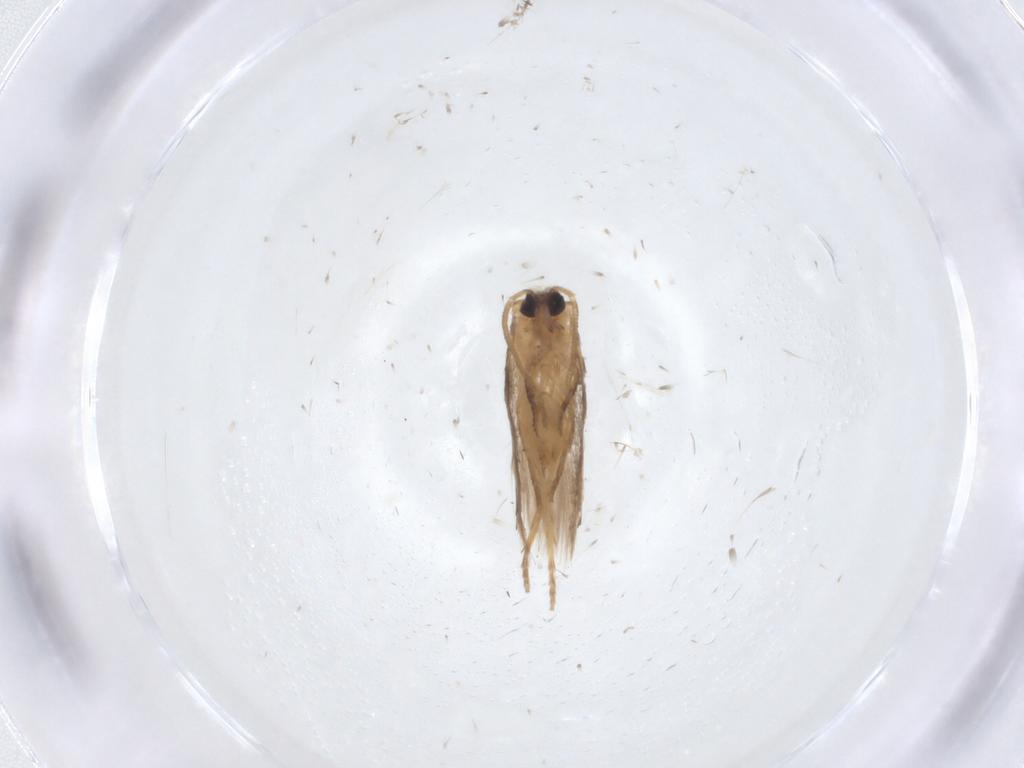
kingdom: Animalia
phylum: Arthropoda
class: Insecta
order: Lepidoptera
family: Nepticulidae
